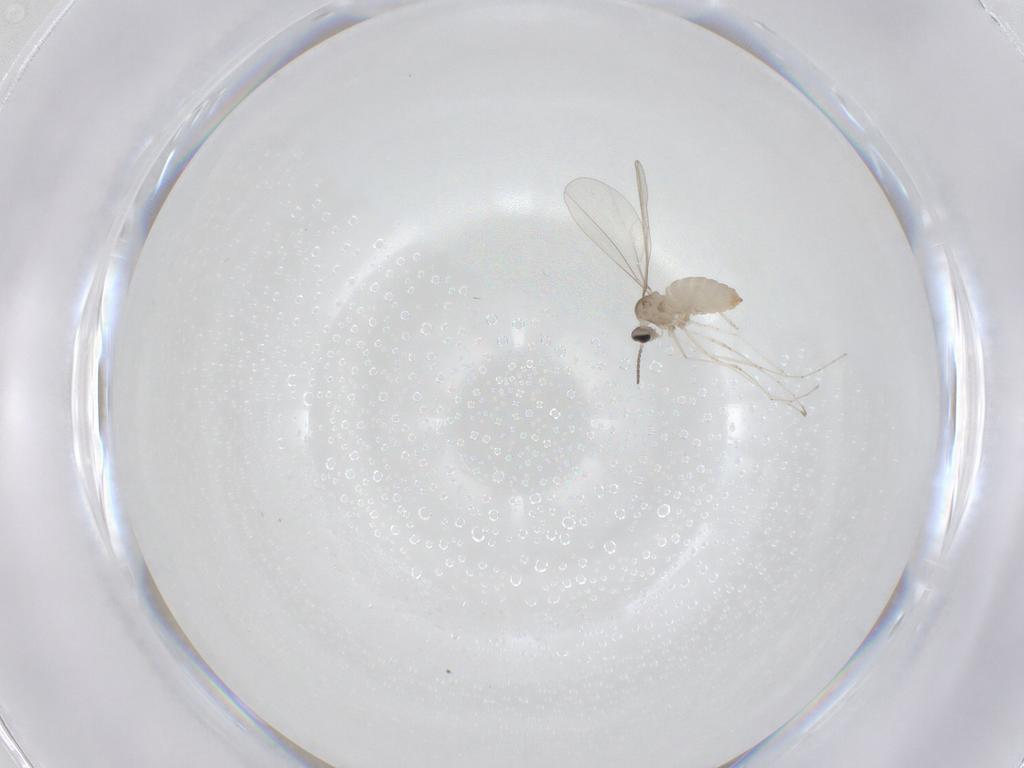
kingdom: Animalia
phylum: Arthropoda
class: Insecta
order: Diptera
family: Cecidomyiidae
